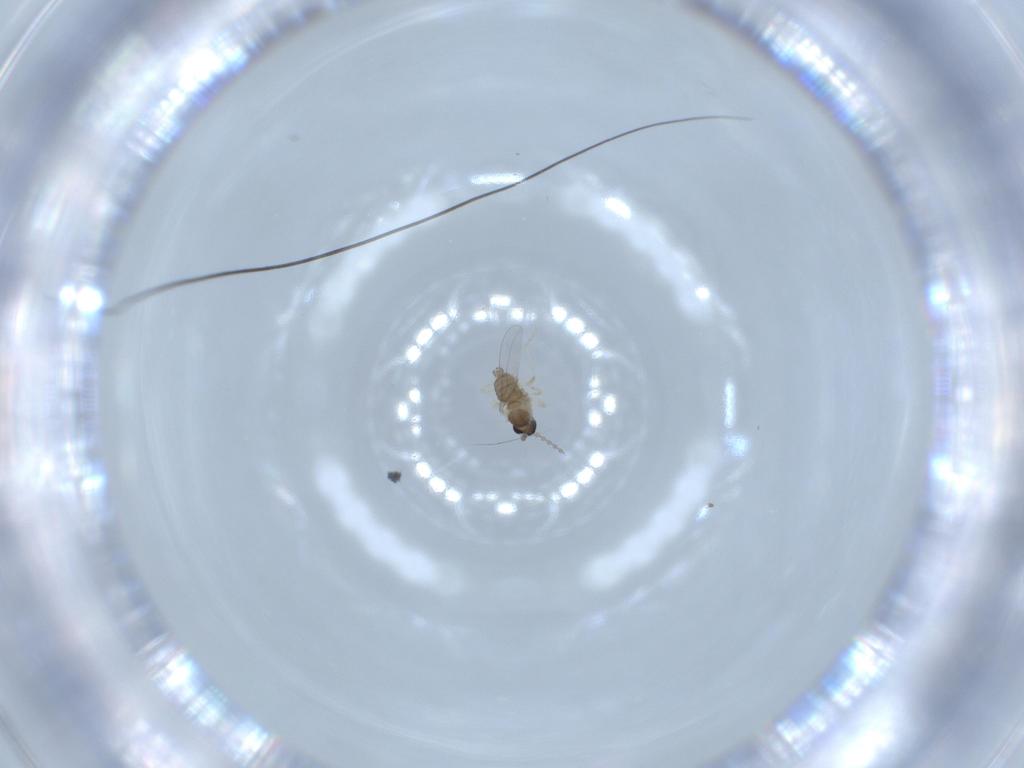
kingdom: Animalia
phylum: Arthropoda
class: Insecta
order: Diptera
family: Cecidomyiidae
